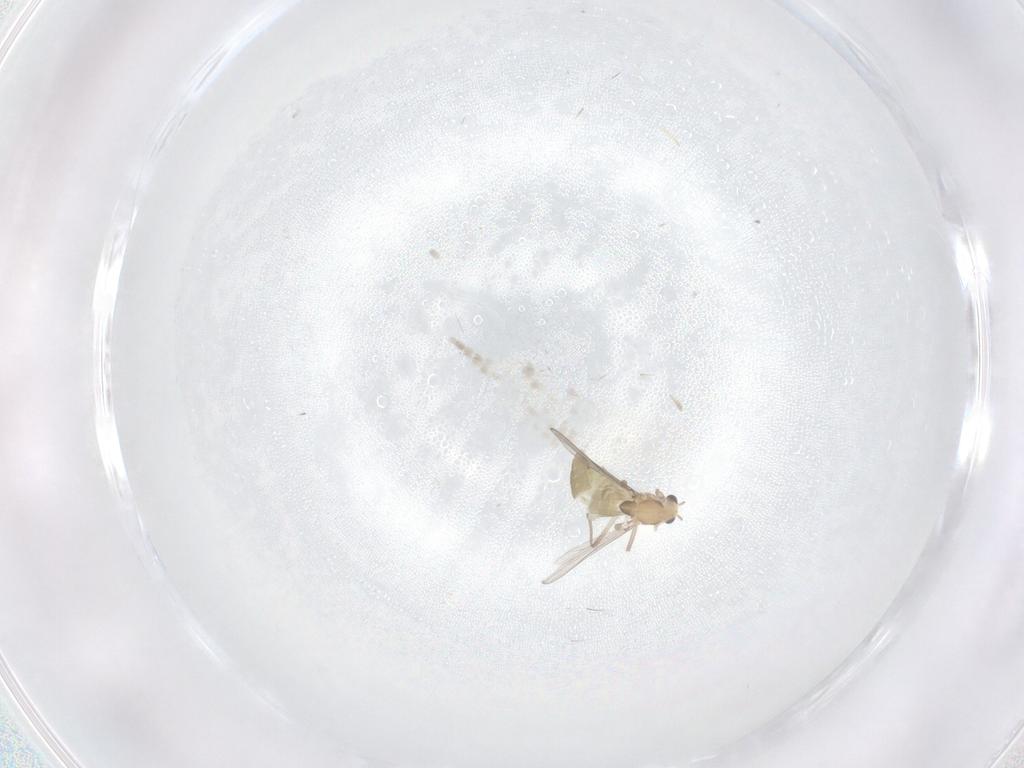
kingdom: Animalia
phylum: Arthropoda
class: Insecta
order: Diptera
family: Chironomidae
